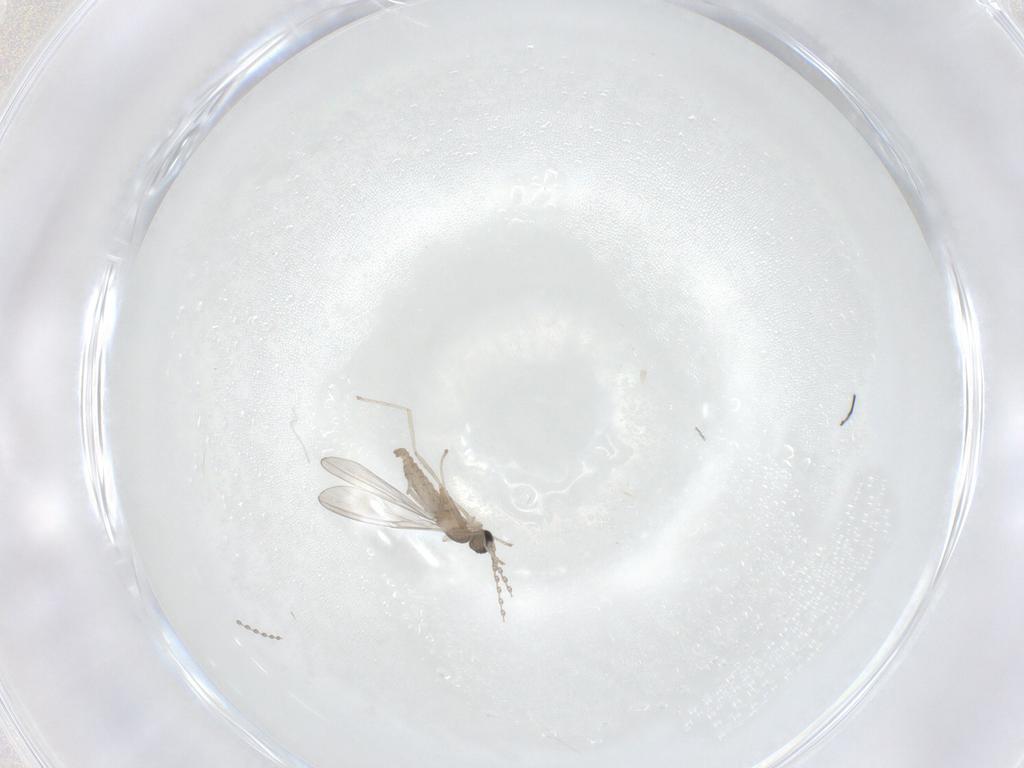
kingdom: Animalia
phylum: Arthropoda
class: Insecta
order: Diptera
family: Cecidomyiidae
